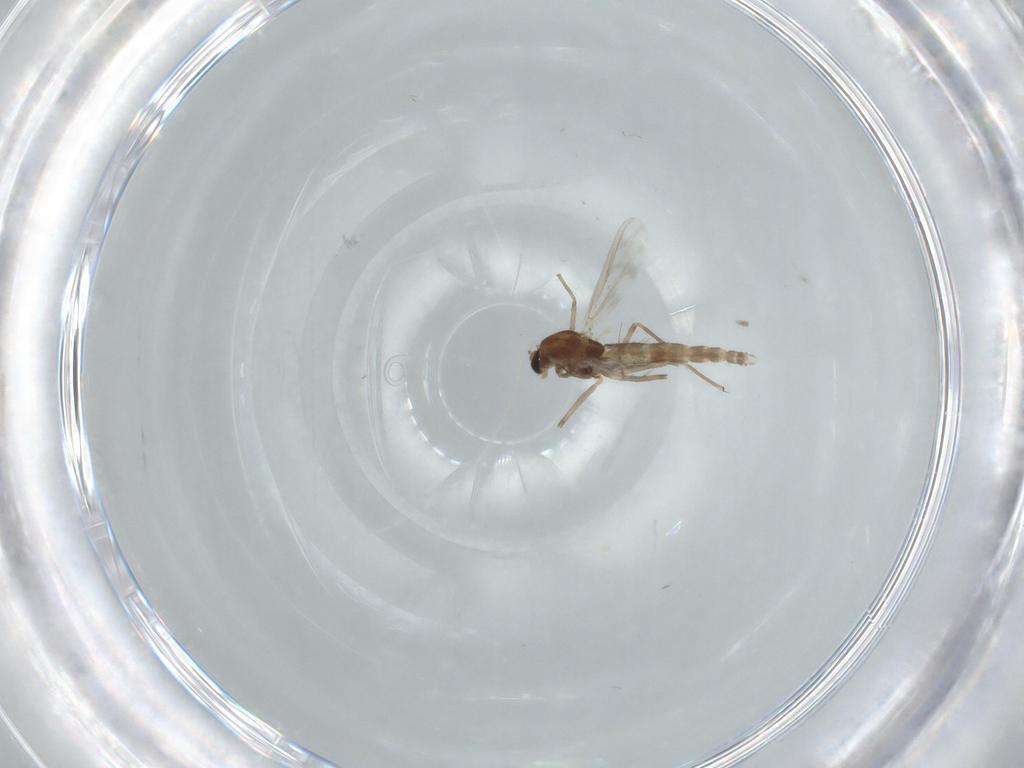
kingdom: Animalia
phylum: Arthropoda
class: Insecta
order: Diptera
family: Chironomidae
